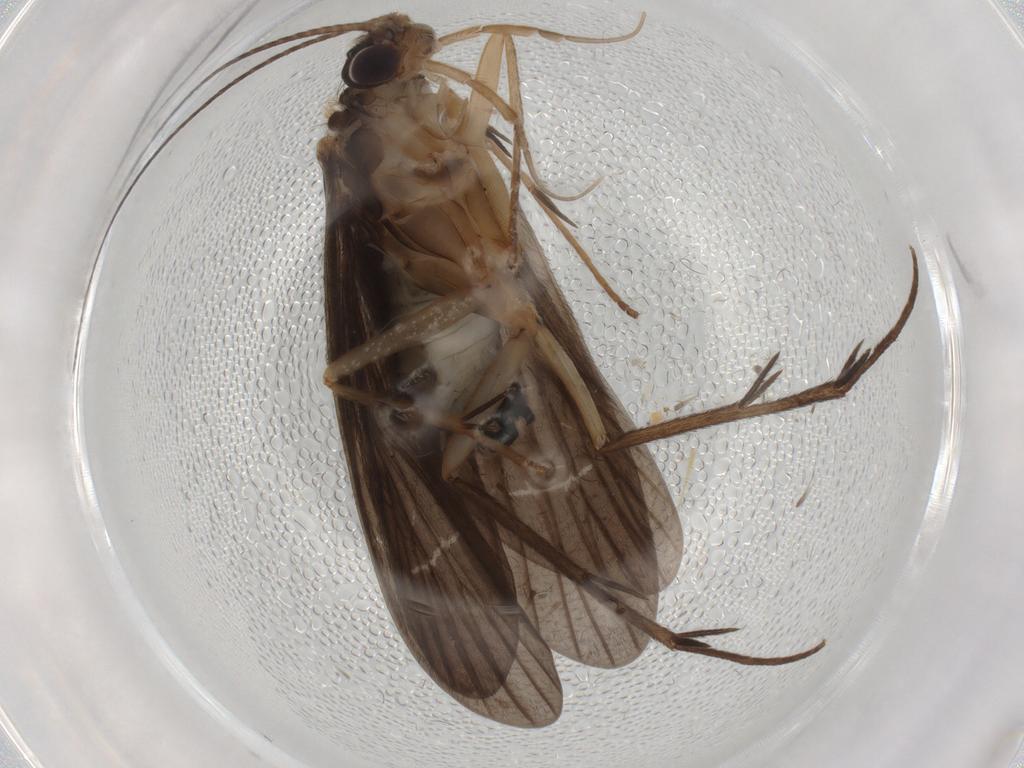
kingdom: Animalia
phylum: Arthropoda
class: Insecta
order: Trichoptera
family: Philopotamidae
